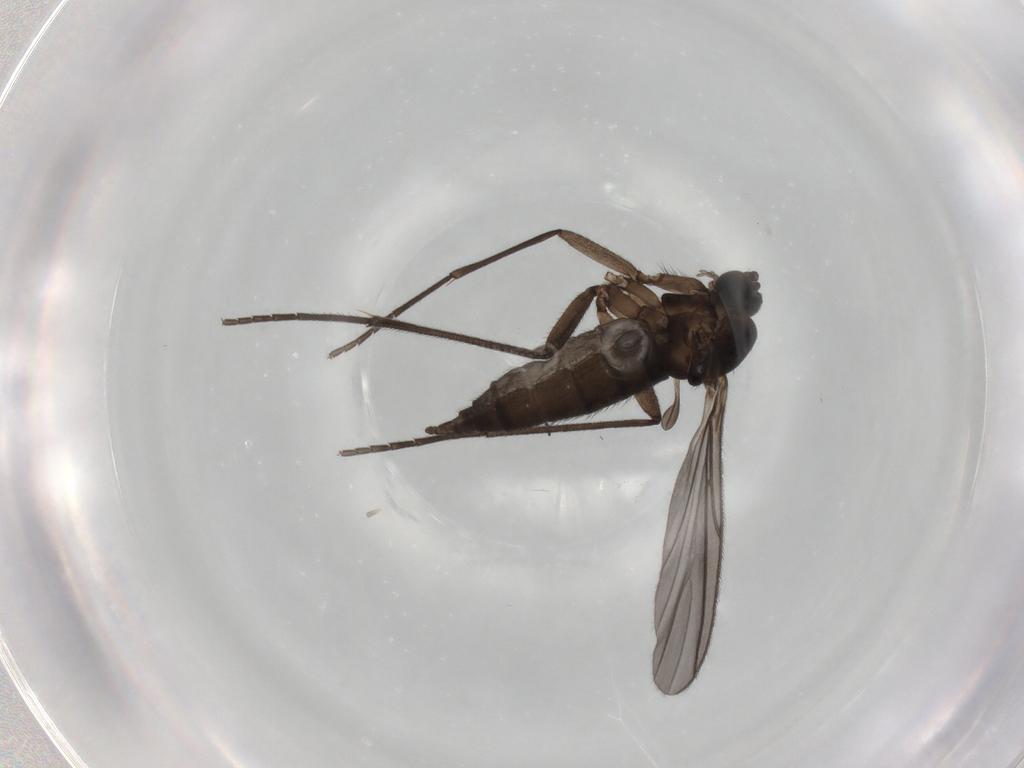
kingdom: Animalia
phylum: Arthropoda
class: Insecta
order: Diptera
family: Sciaridae
